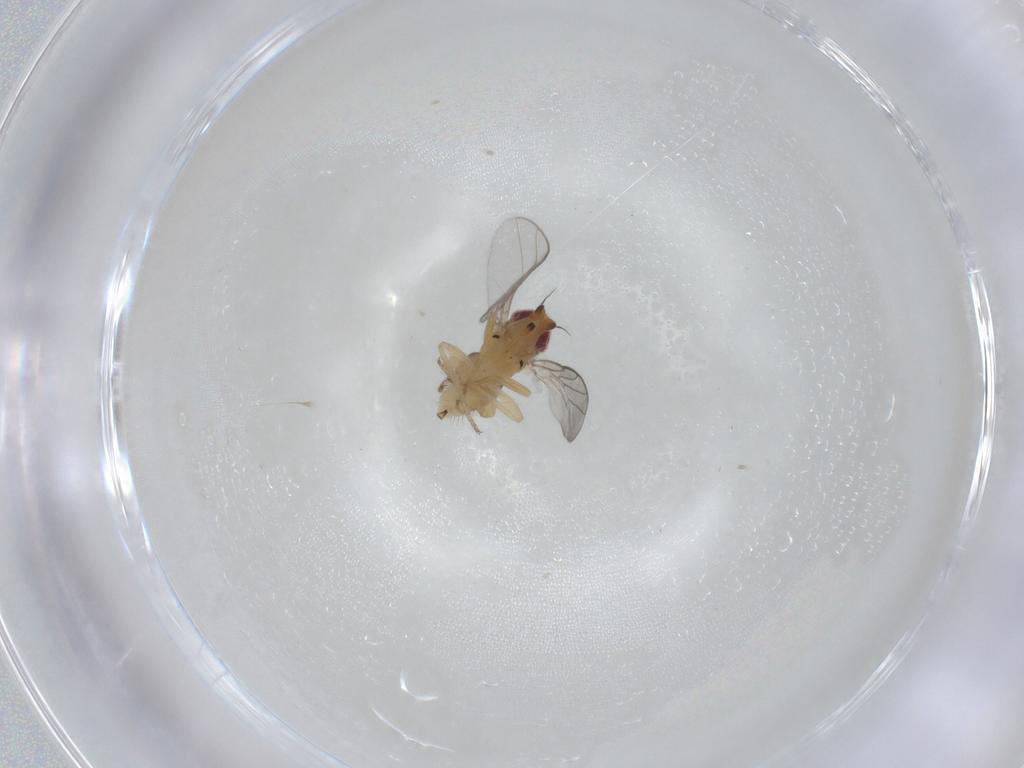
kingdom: Animalia
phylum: Arthropoda
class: Insecta
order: Diptera
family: Chloropidae
